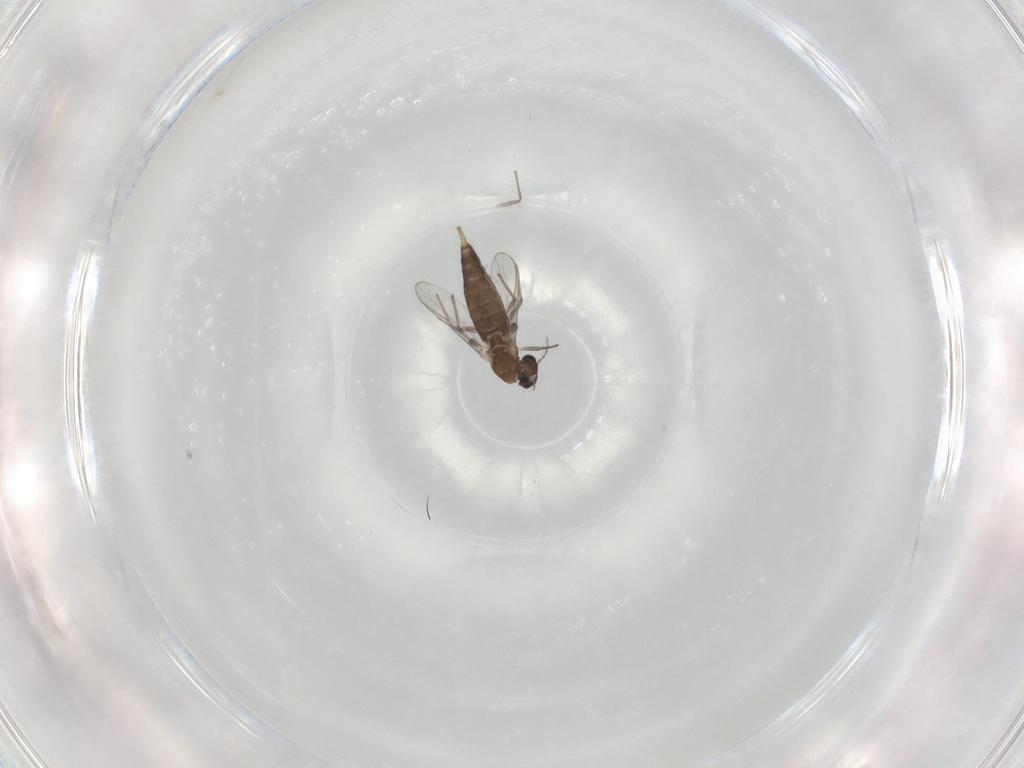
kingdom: Animalia
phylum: Arthropoda
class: Insecta
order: Diptera
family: Chironomidae
